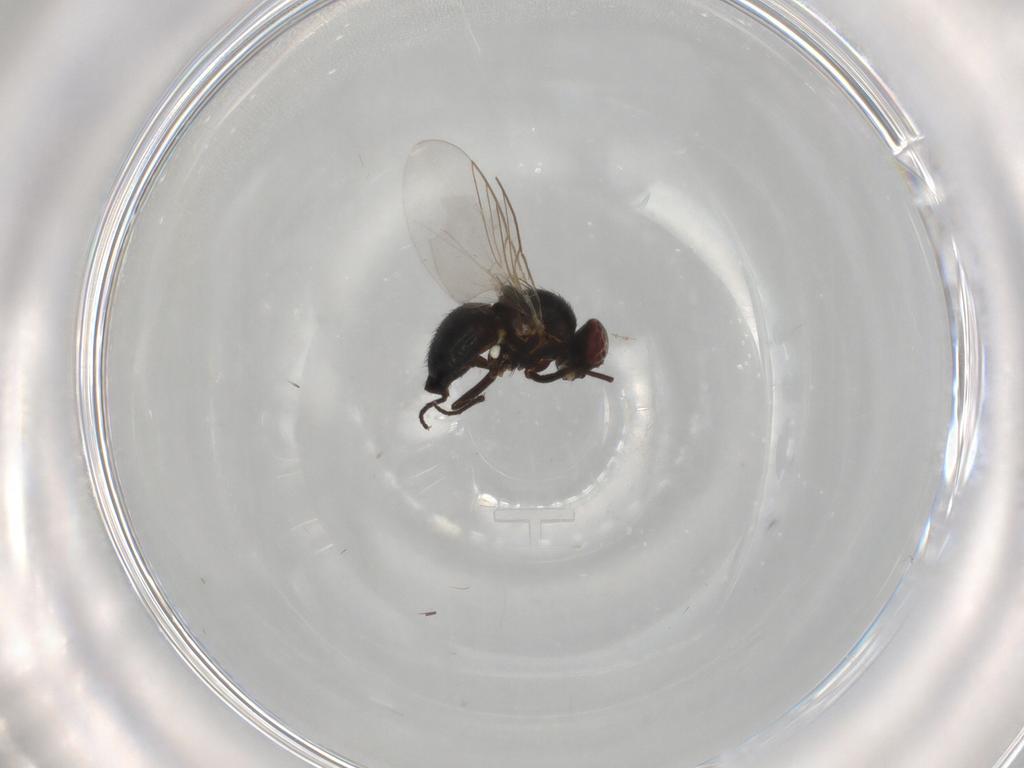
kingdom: Animalia
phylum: Arthropoda
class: Insecta
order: Diptera
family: Agromyzidae
